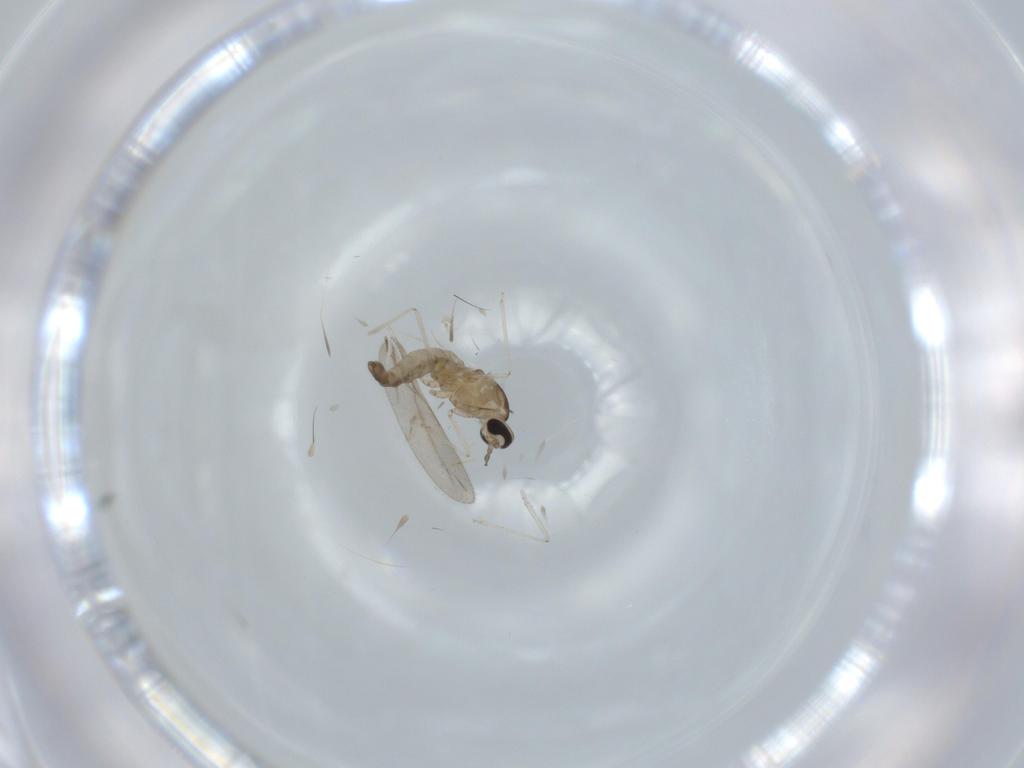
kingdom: Animalia
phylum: Arthropoda
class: Insecta
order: Diptera
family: Cecidomyiidae
